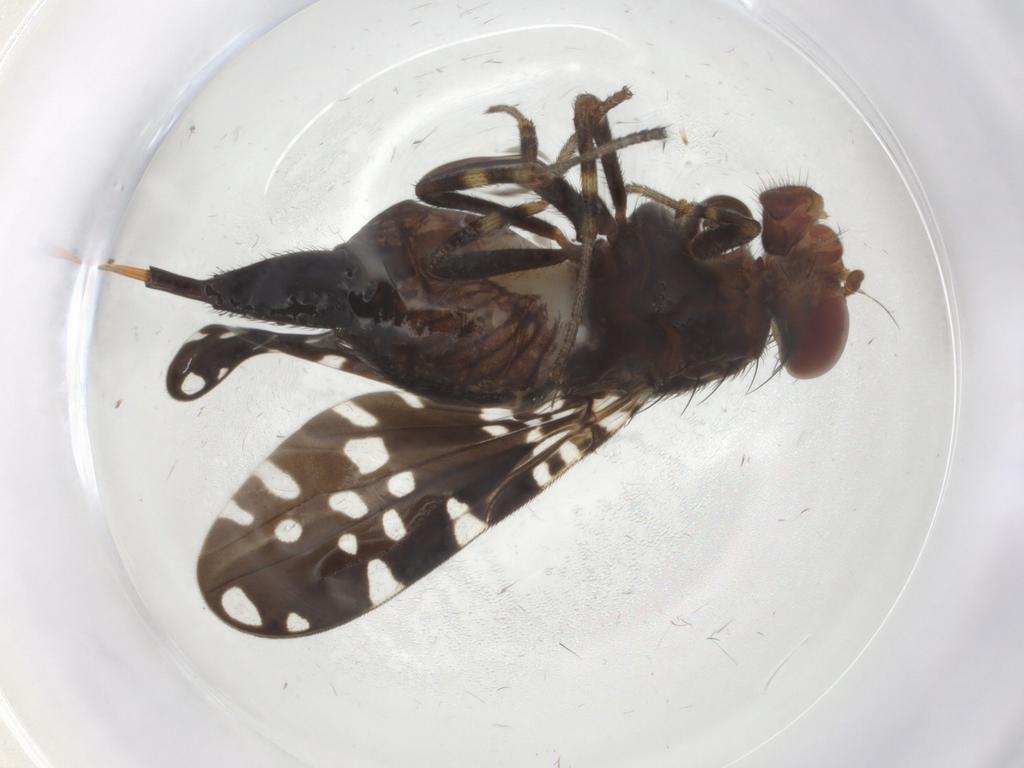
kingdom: Animalia
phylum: Arthropoda
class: Insecta
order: Diptera
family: Ulidiidae
